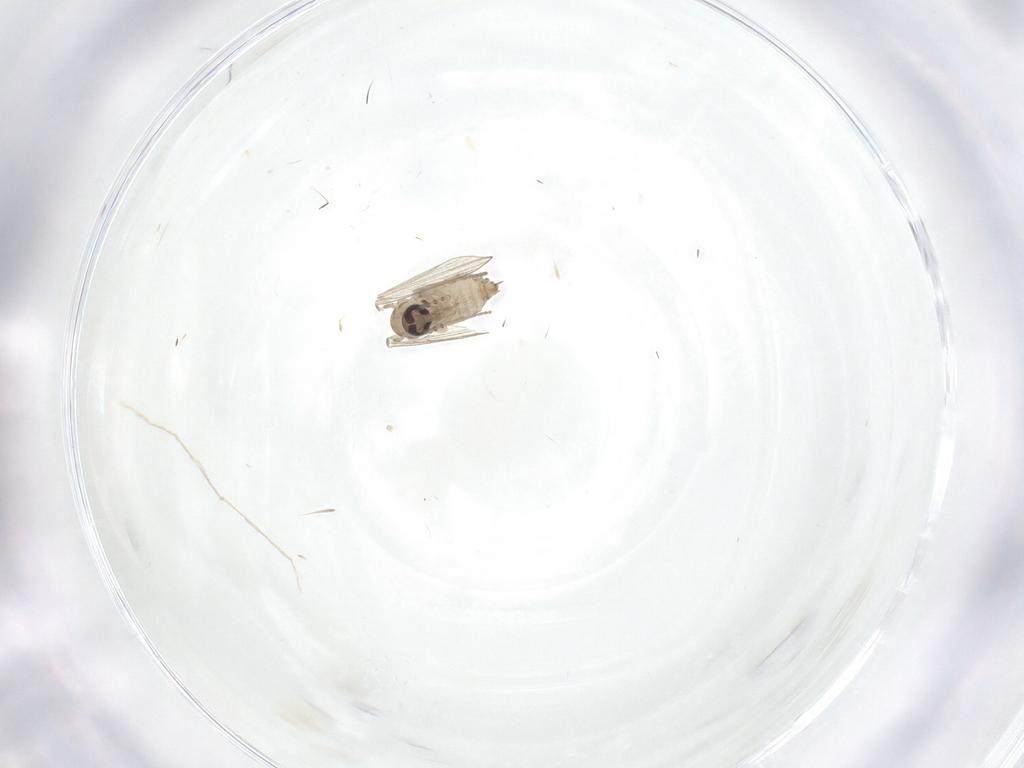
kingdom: Animalia
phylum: Arthropoda
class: Insecta
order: Diptera
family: Psychodidae
